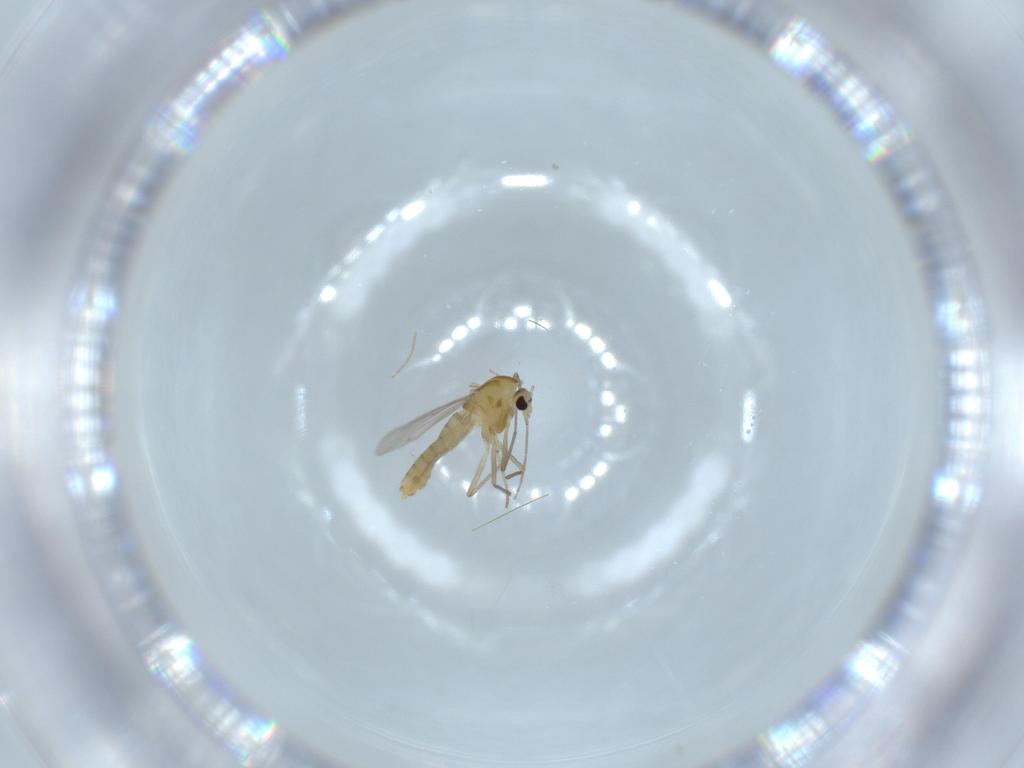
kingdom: Animalia
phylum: Arthropoda
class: Insecta
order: Diptera
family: Chironomidae
